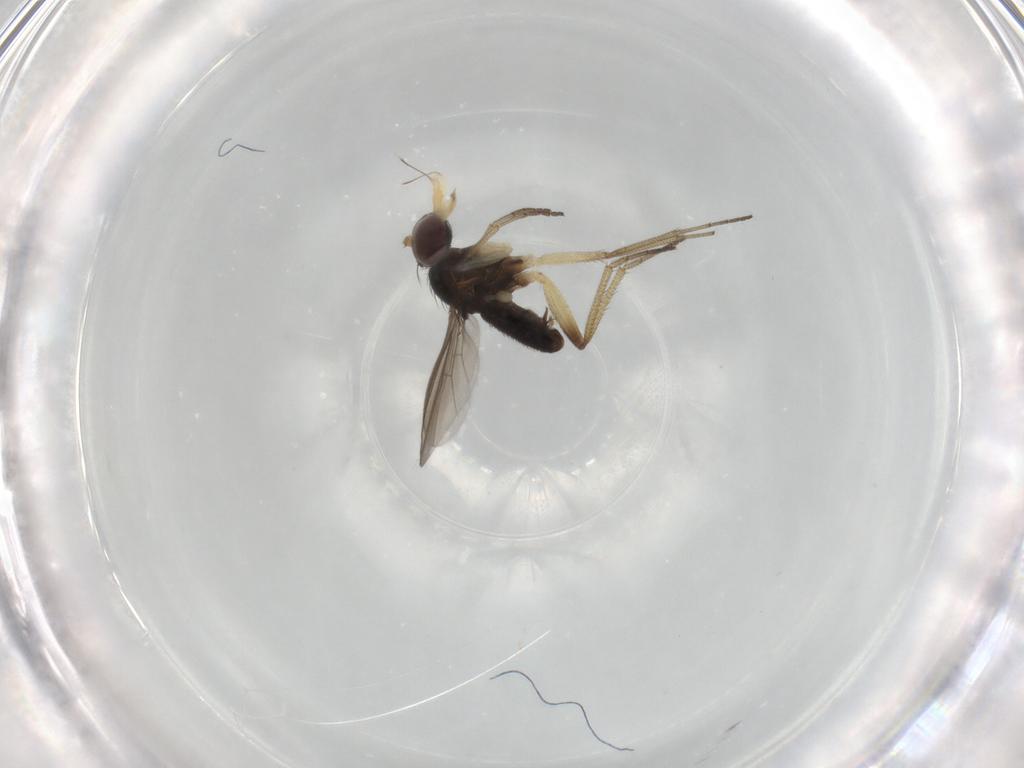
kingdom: Animalia
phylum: Arthropoda
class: Insecta
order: Diptera
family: Dolichopodidae
